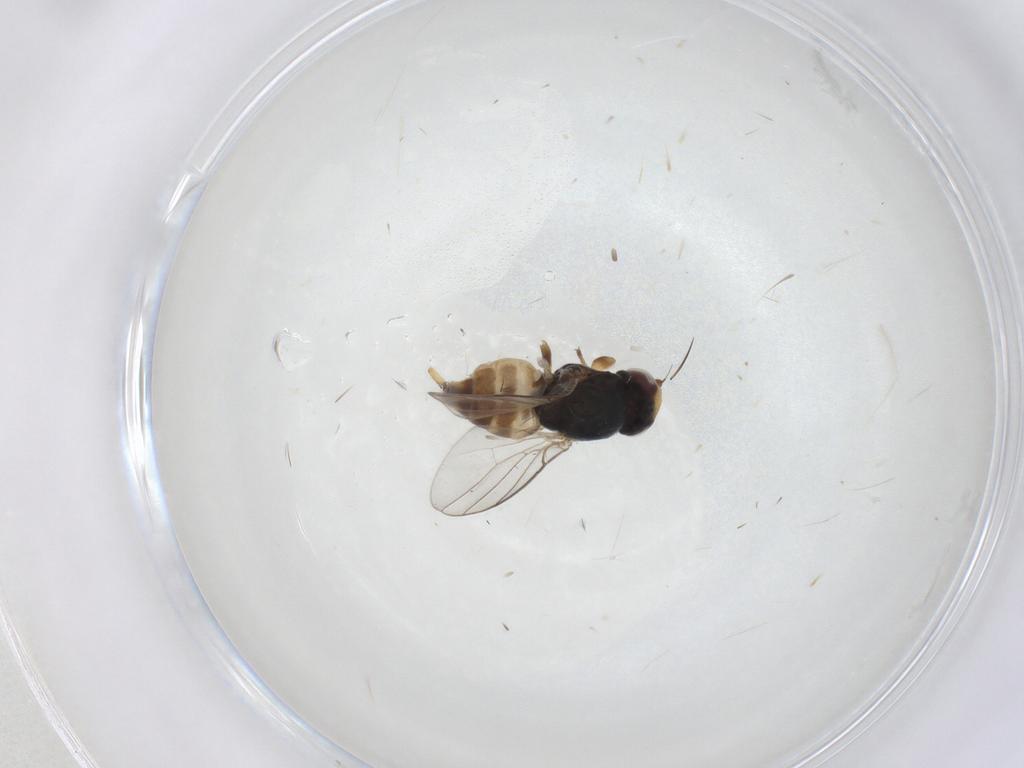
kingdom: Animalia
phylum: Arthropoda
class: Insecta
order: Diptera
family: Chloropidae
